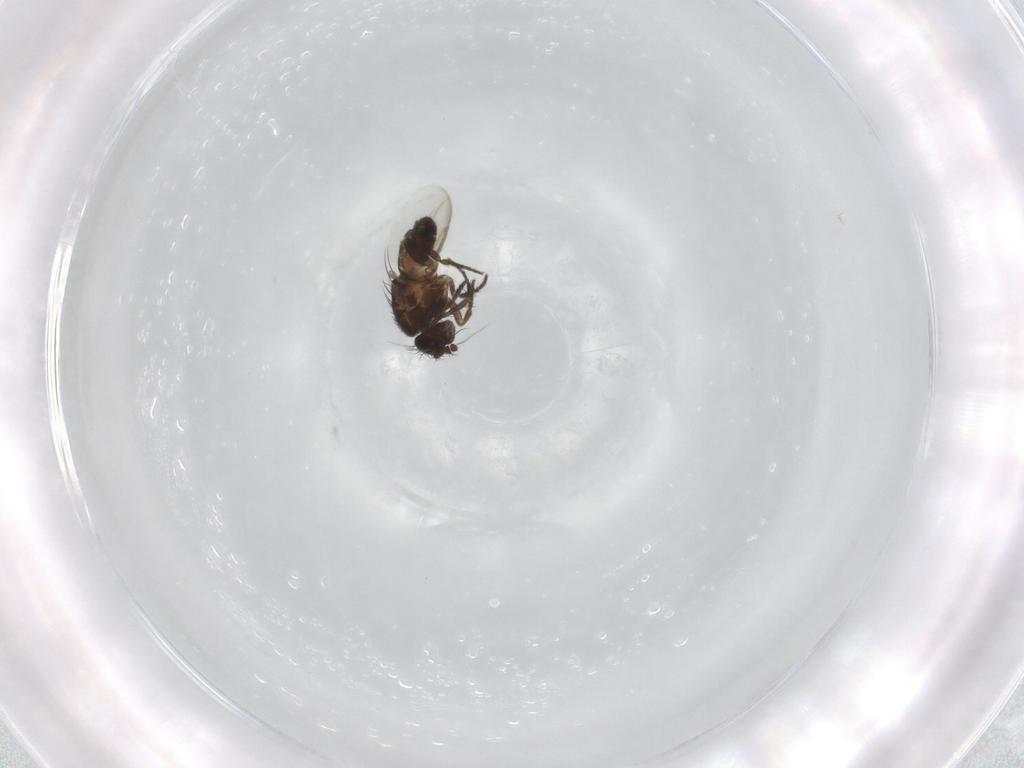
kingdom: Animalia
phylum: Arthropoda
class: Insecta
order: Diptera
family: Sphaeroceridae
